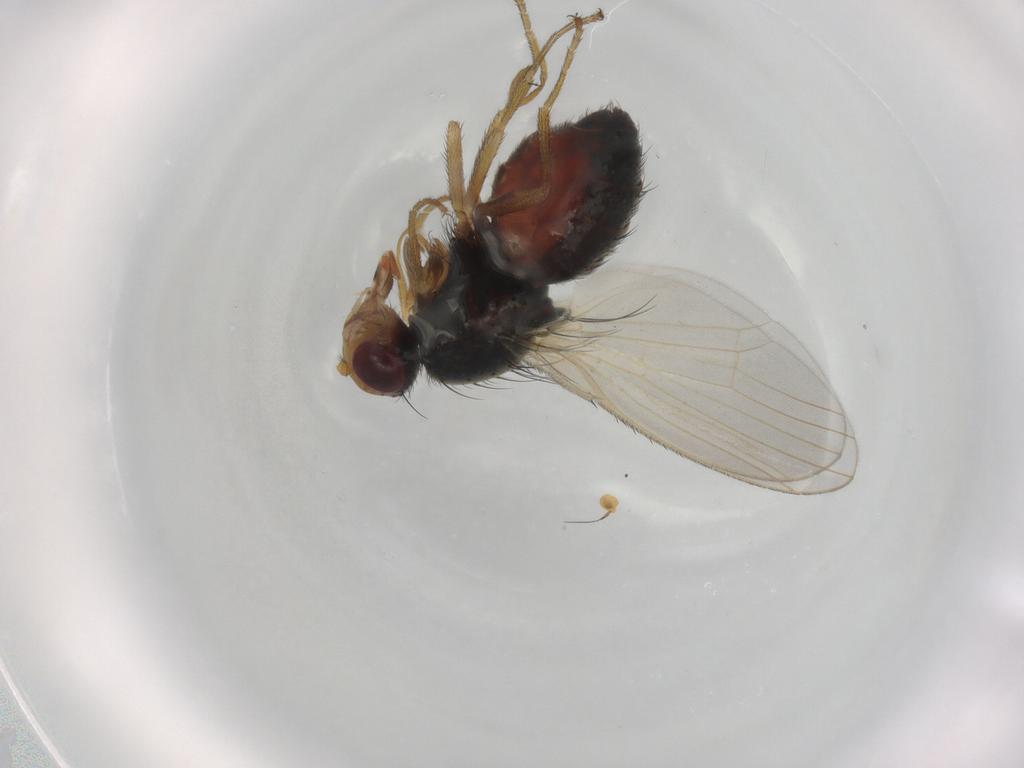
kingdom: Animalia
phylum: Arthropoda
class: Insecta
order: Diptera
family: Heleomyzidae
